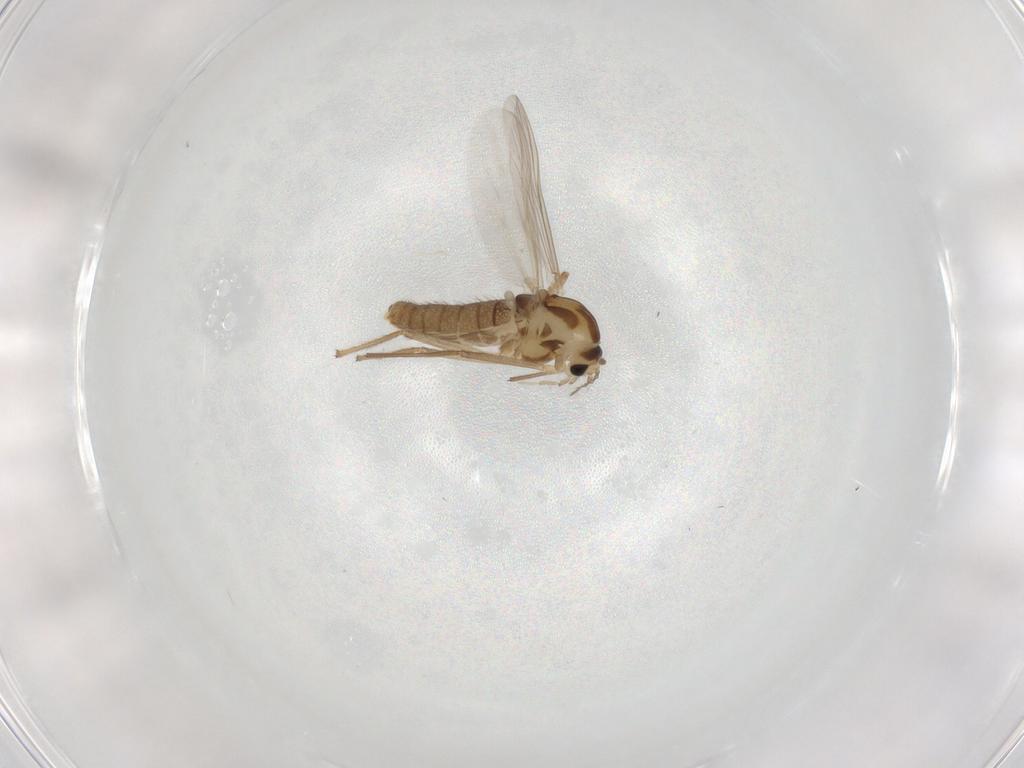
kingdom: Animalia
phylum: Arthropoda
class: Insecta
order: Diptera
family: Chironomidae
